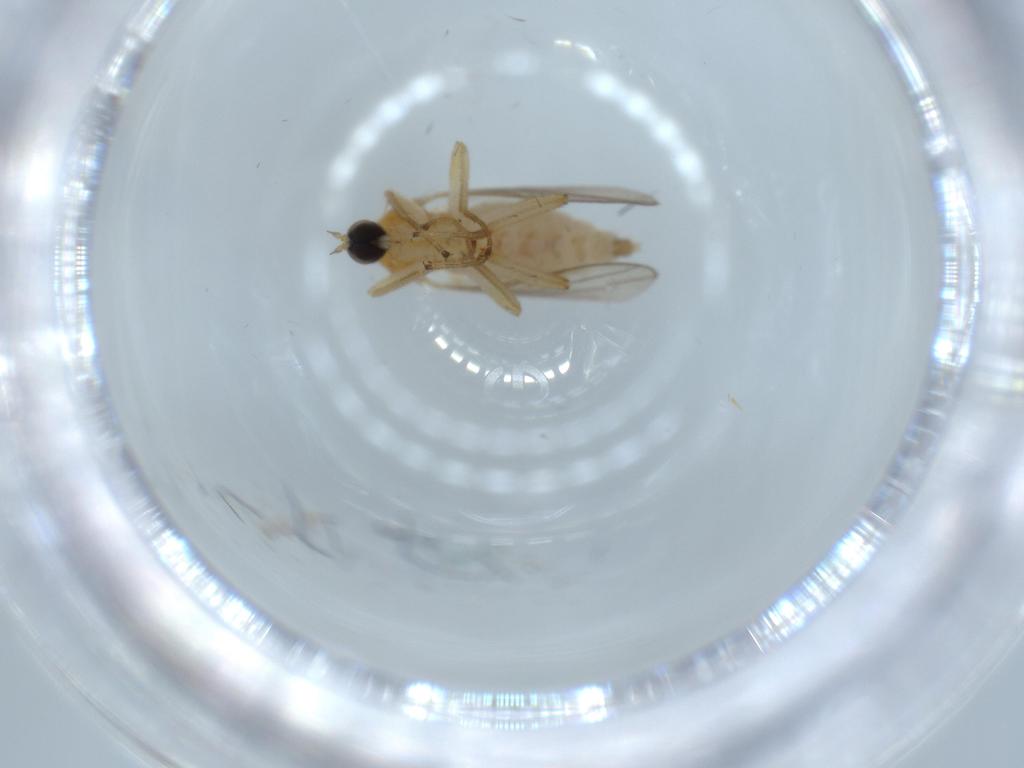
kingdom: Animalia
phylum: Arthropoda
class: Insecta
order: Diptera
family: Hybotidae
